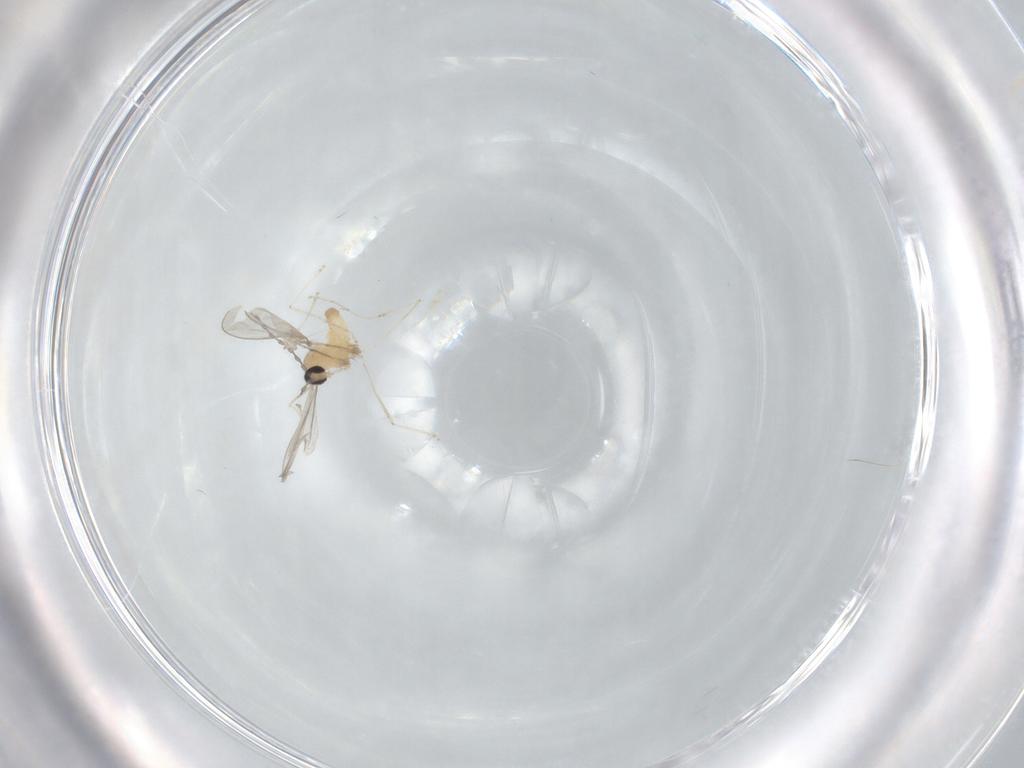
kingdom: Animalia
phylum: Arthropoda
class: Insecta
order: Diptera
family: Cecidomyiidae
